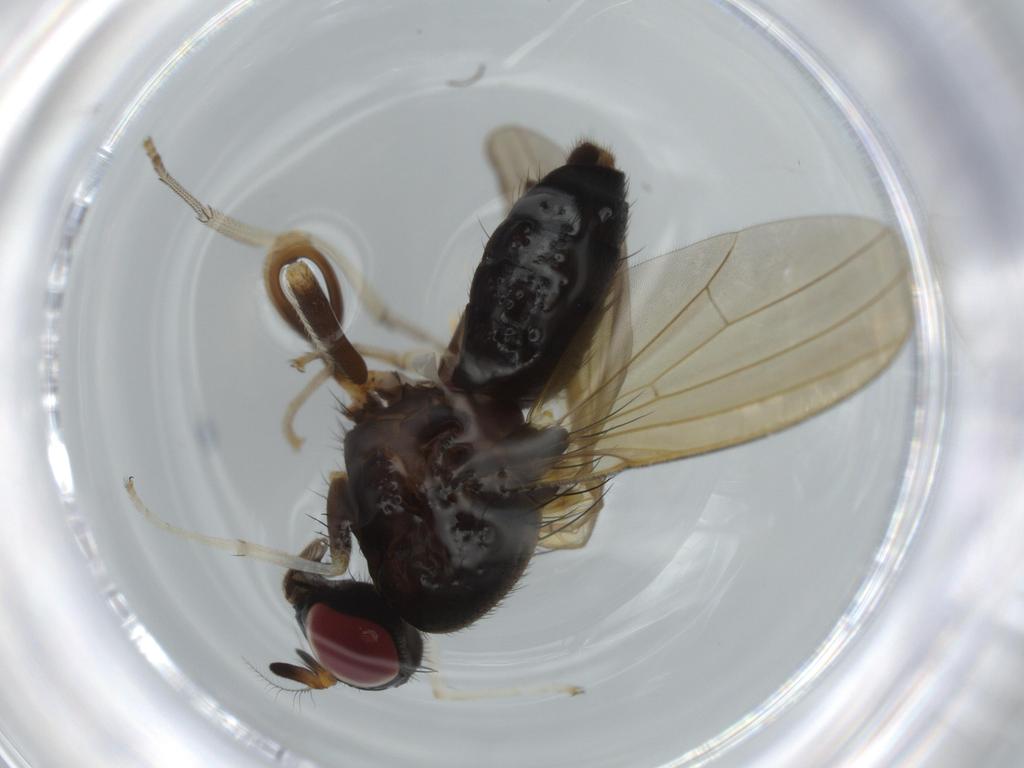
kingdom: Animalia
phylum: Arthropoda
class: Insecta
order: Diptera
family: Sciaridae
